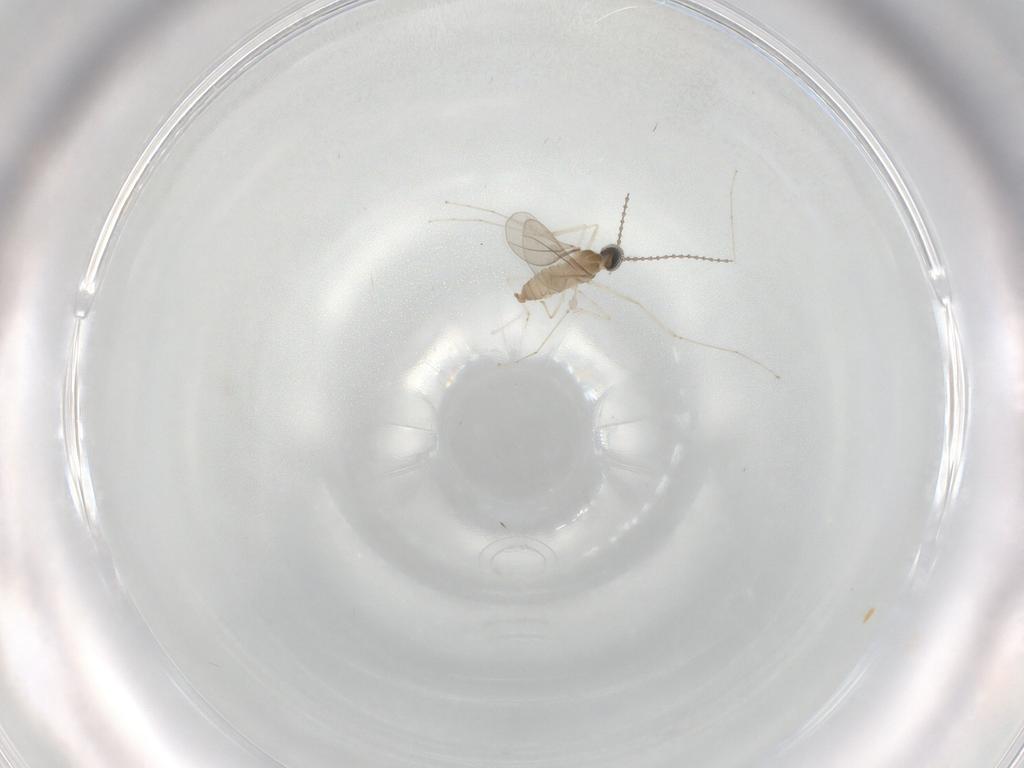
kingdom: Animalia
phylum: Arthropoda
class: Insecta
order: Diptera
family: Cecidomyiidae
